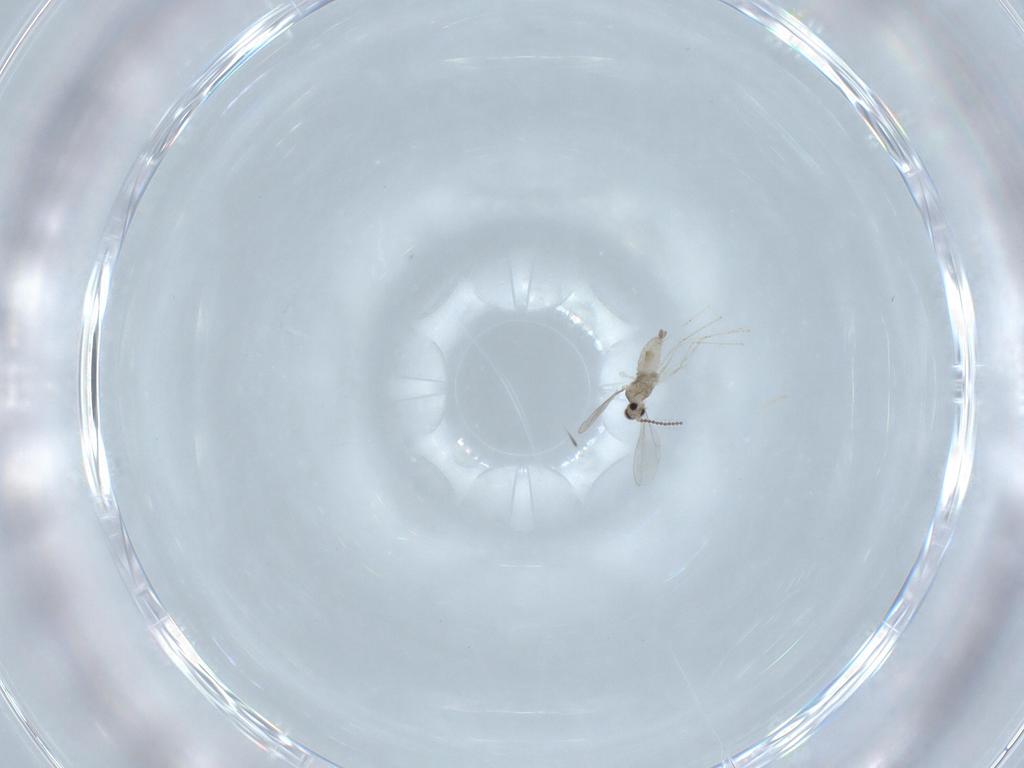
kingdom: Animalia
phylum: Arthropoda
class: Insecta
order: Diptera
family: Cecidomyiidae
